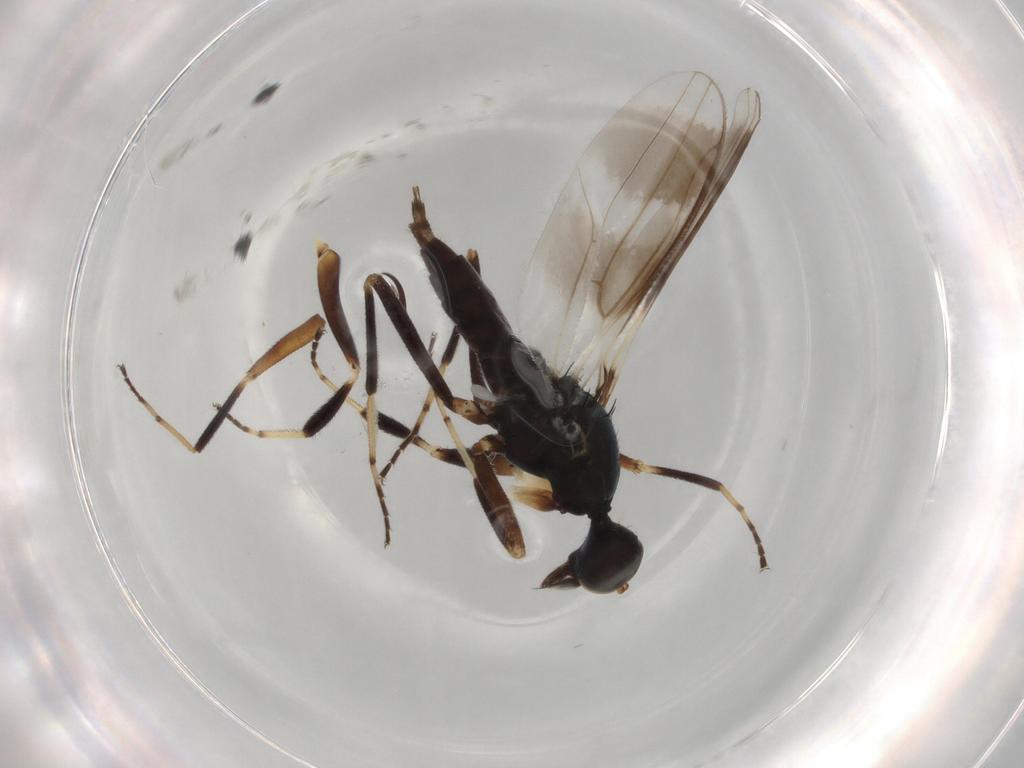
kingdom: Animalia
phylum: Arthropoda
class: Insecta
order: Diptera
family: Hybotidae
